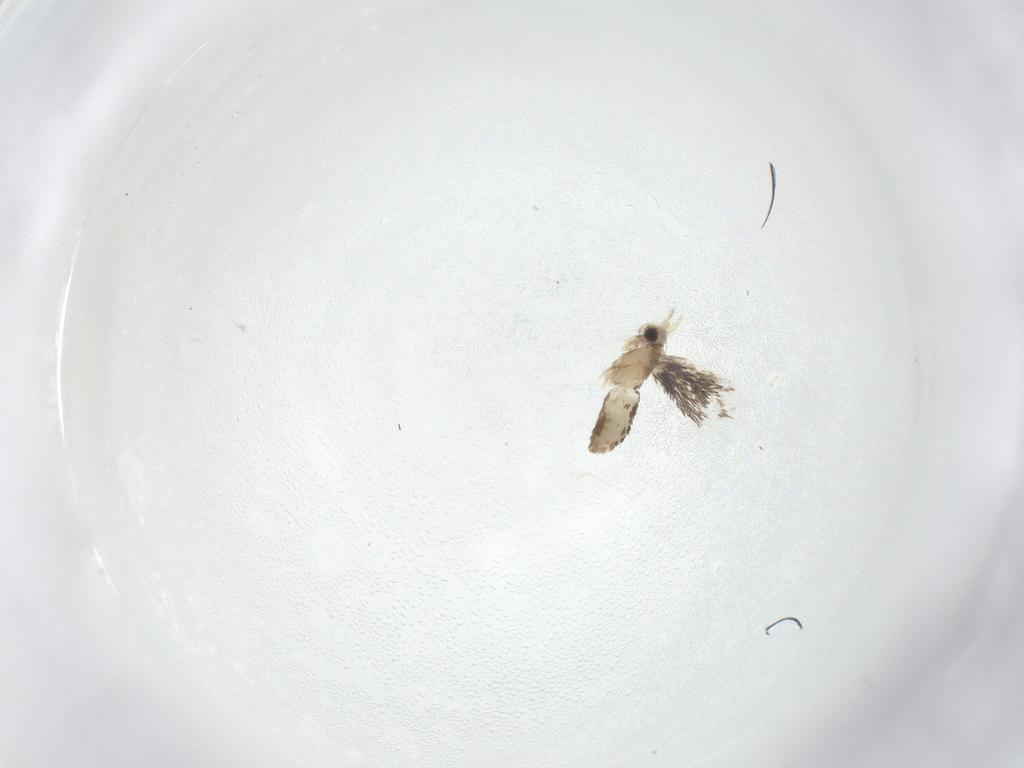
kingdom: Animalia
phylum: Arthropoda
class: Insecta
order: Lepidoptera
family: Nepticulidae
